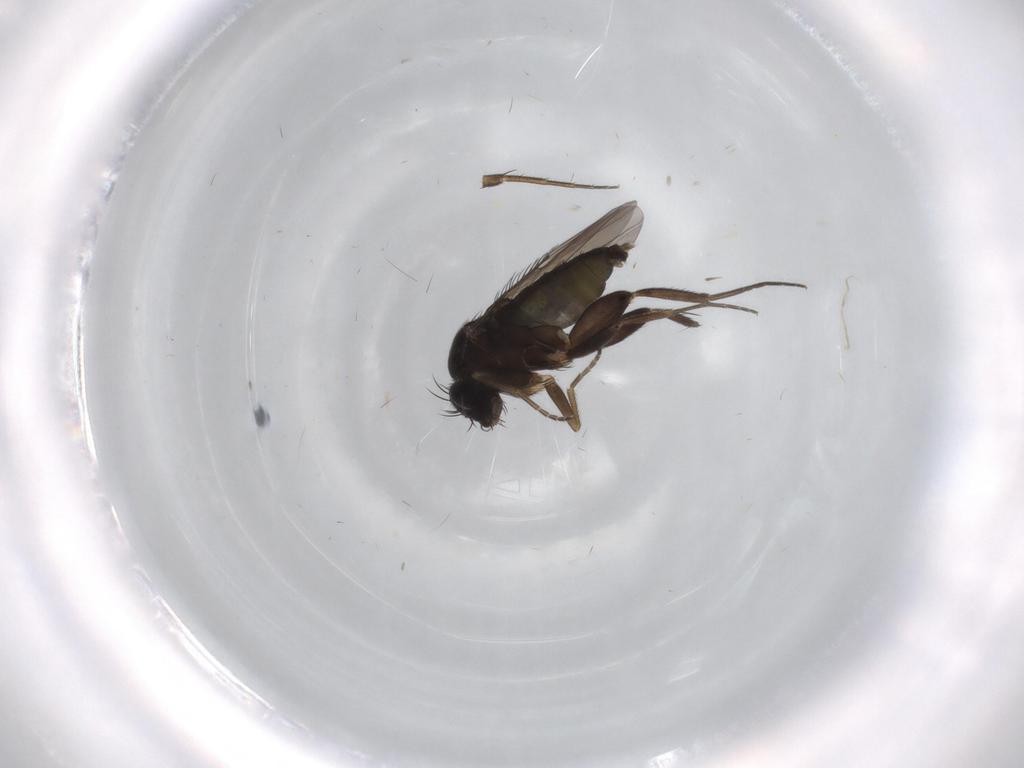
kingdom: Animalia
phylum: Arthropoda
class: Insecta
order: Diptera
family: Phoridae
